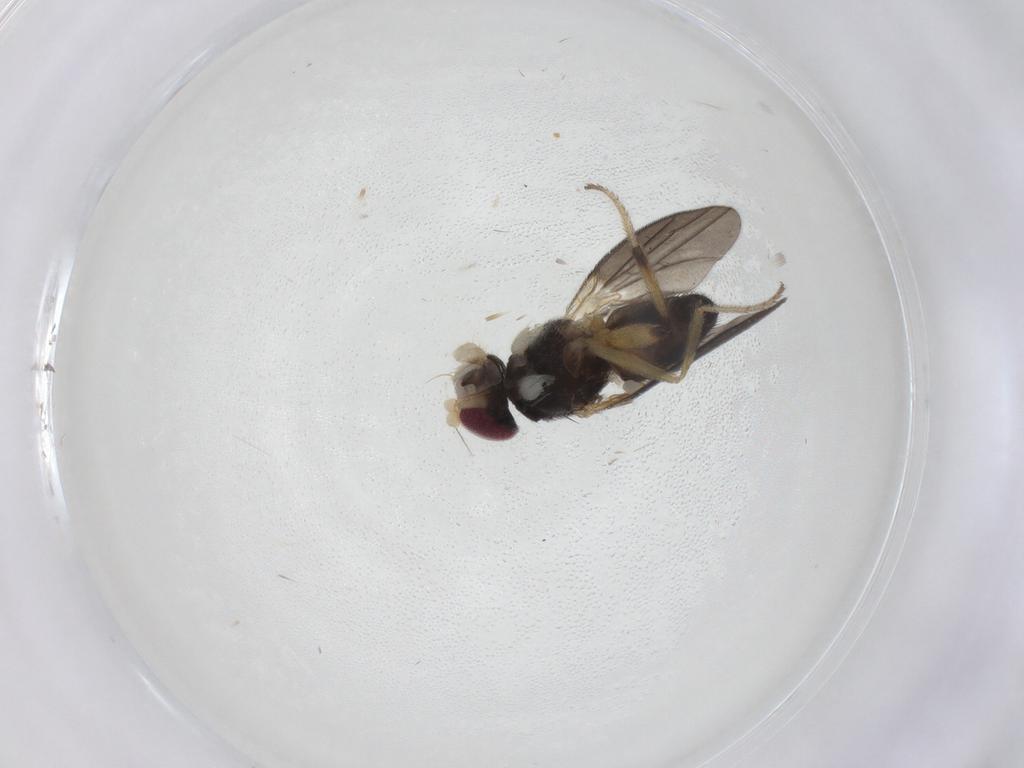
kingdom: Animalia
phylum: Arthropoda
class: Insecta
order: Diptera
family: Clusiidae
